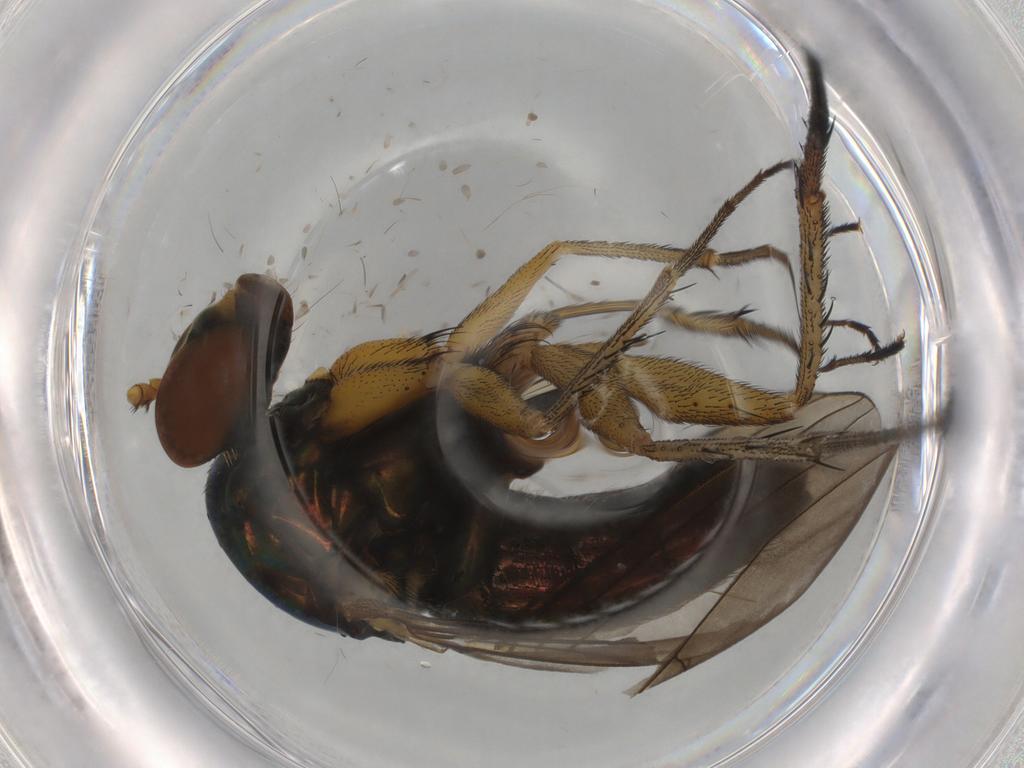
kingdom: Animalia
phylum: Arthropoda
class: Insecta
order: Diptera
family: Dolichopodidae
